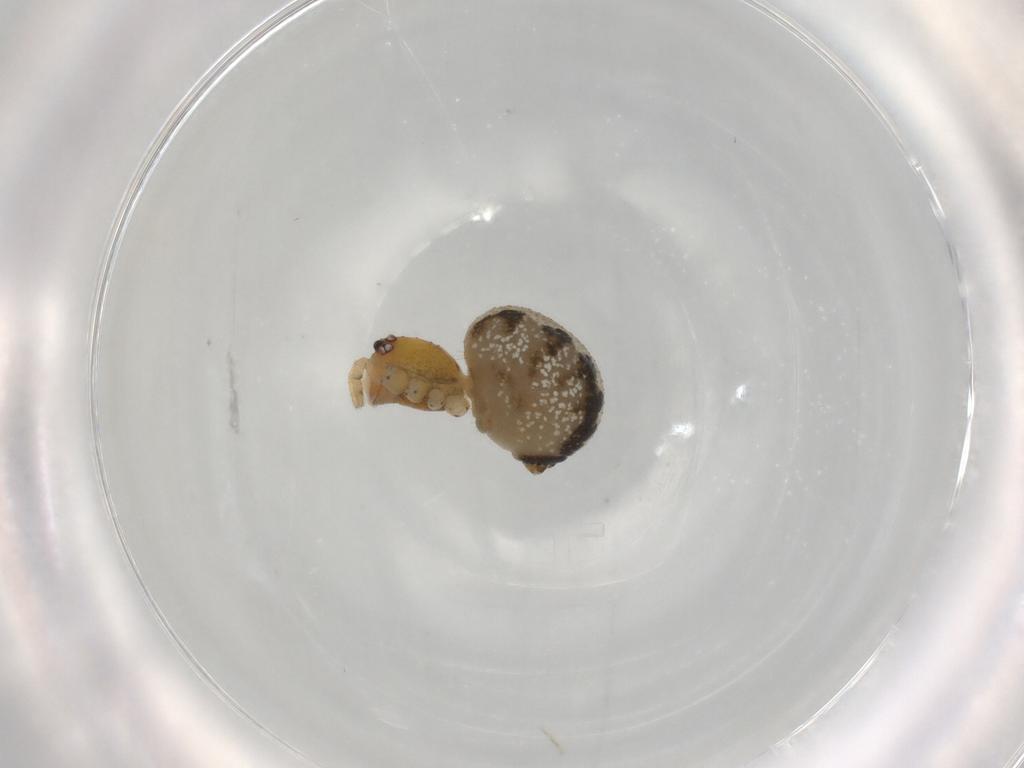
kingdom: Animalia
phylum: Arthropoda
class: Arachnida
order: Araneae
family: Theridiidae
